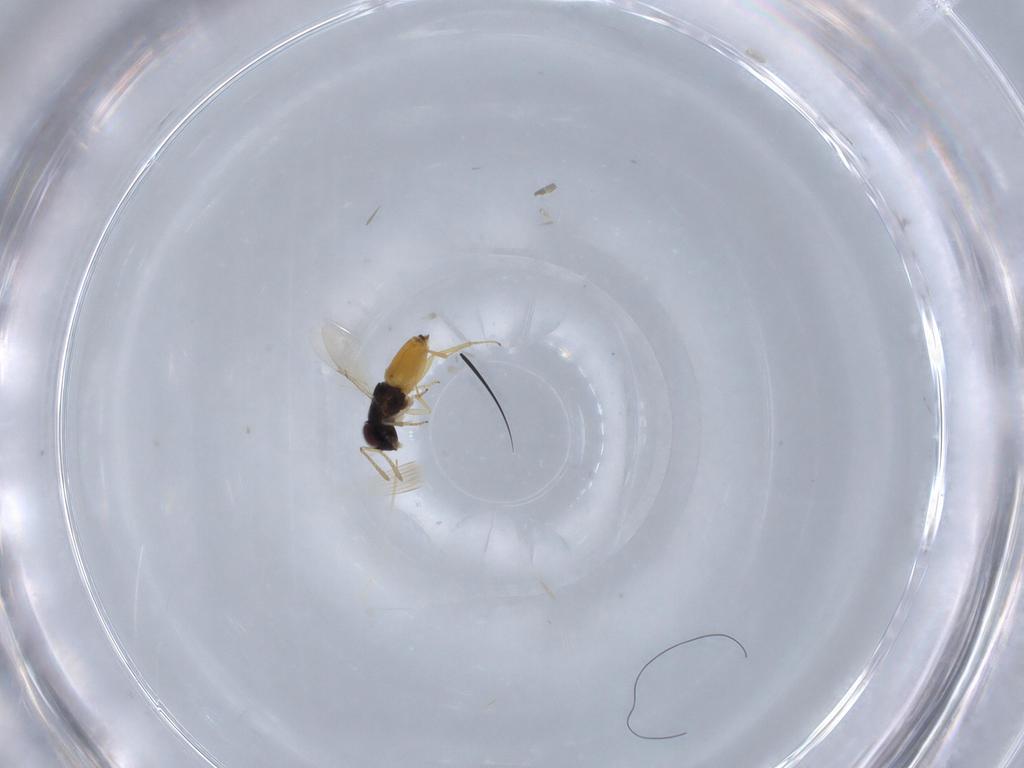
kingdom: Animalia
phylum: Arthropoda
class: Insecta
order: Hymenoptera
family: Encyrtidae
